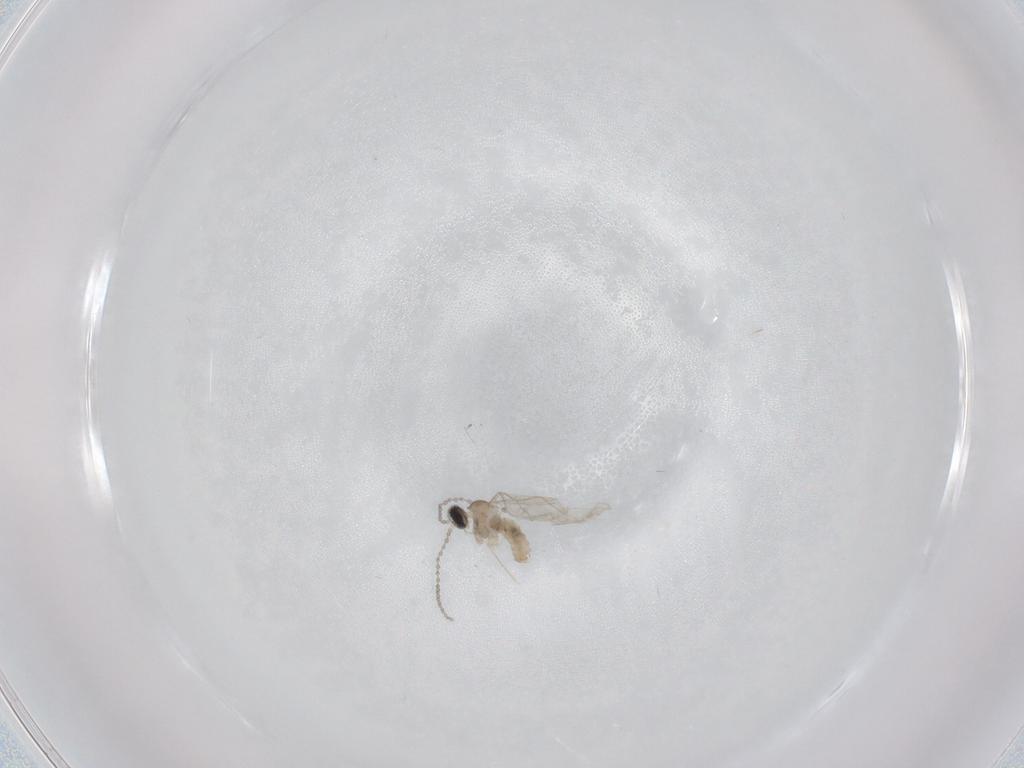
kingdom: Animalia
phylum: Arthropoda
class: Insecta
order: Diptera
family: Cecidomyiidae
